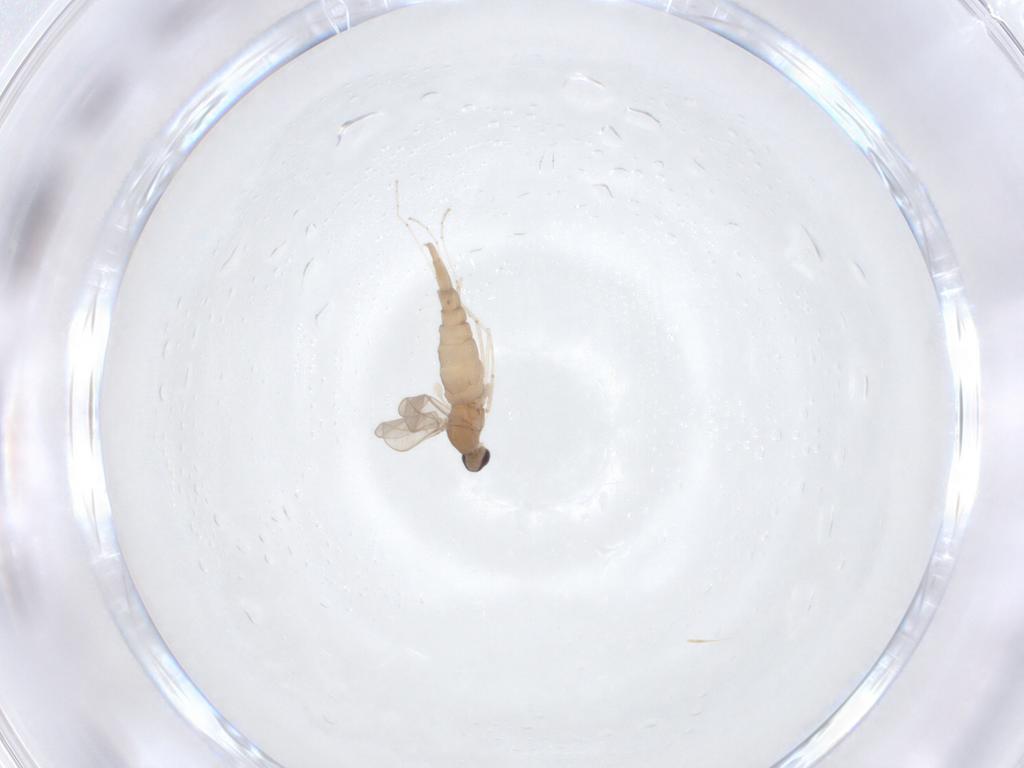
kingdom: Animalia
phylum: Arthropoda
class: Insecta
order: Diptera
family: Cecidomyiidae
